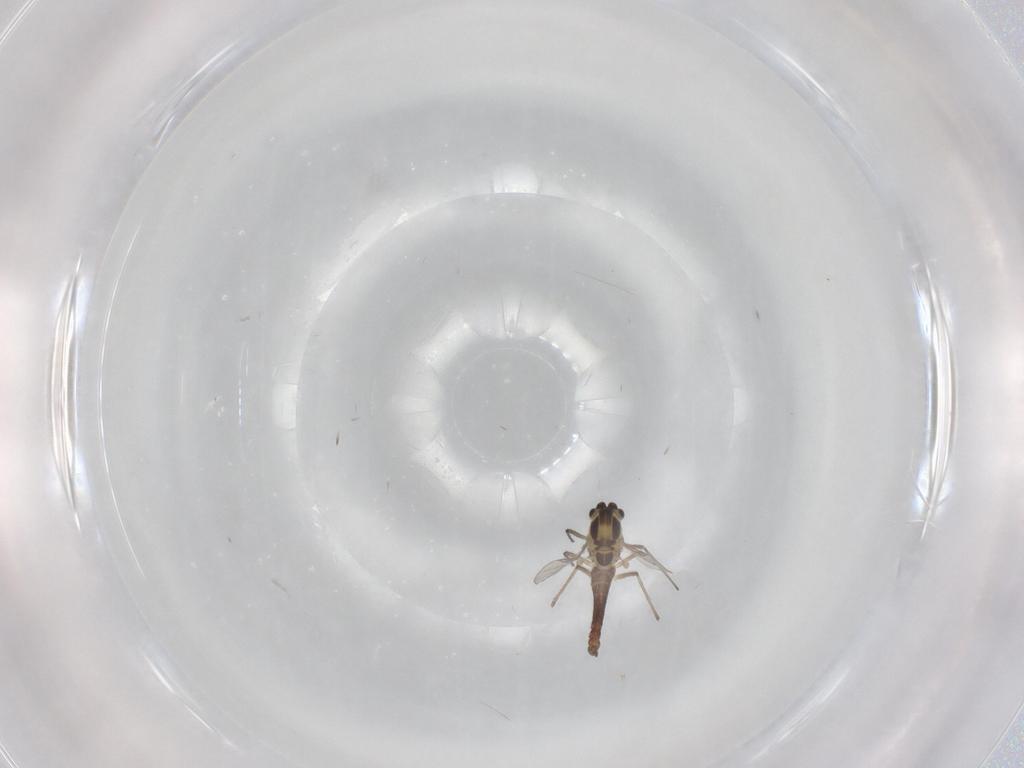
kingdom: Animalia
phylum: Arthropoda
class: Insecta
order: Diptera
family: Chironomidae
